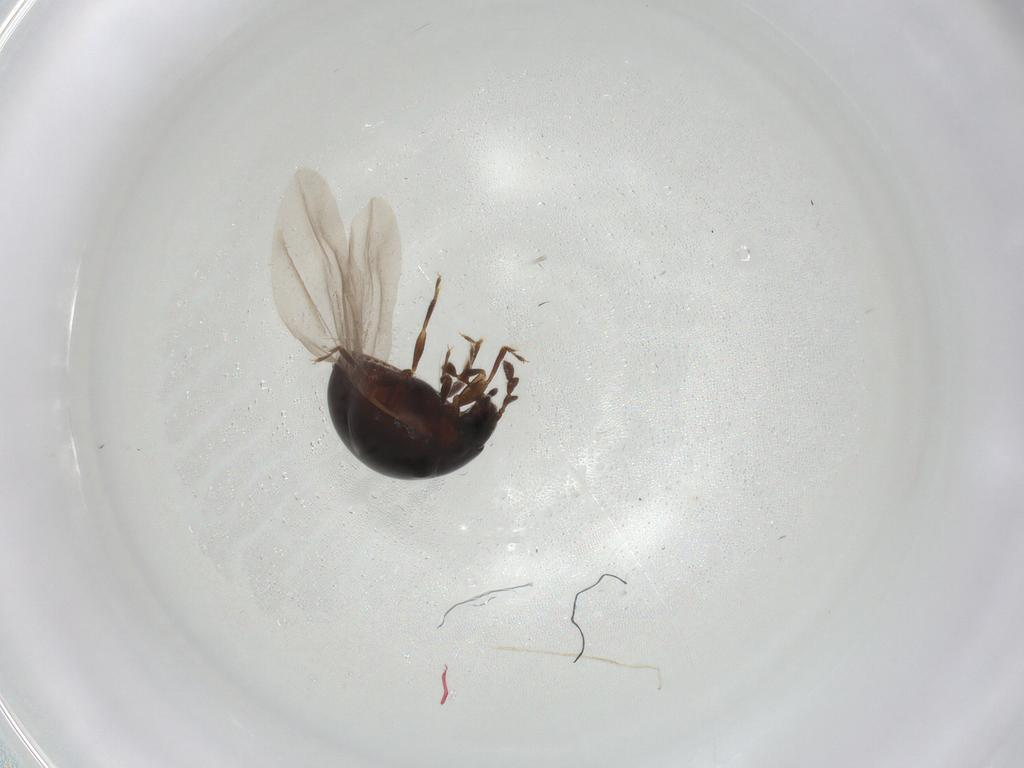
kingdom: Animalia
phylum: Arthropoda
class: Insecta
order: Coleoptera
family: Anamorphidae
